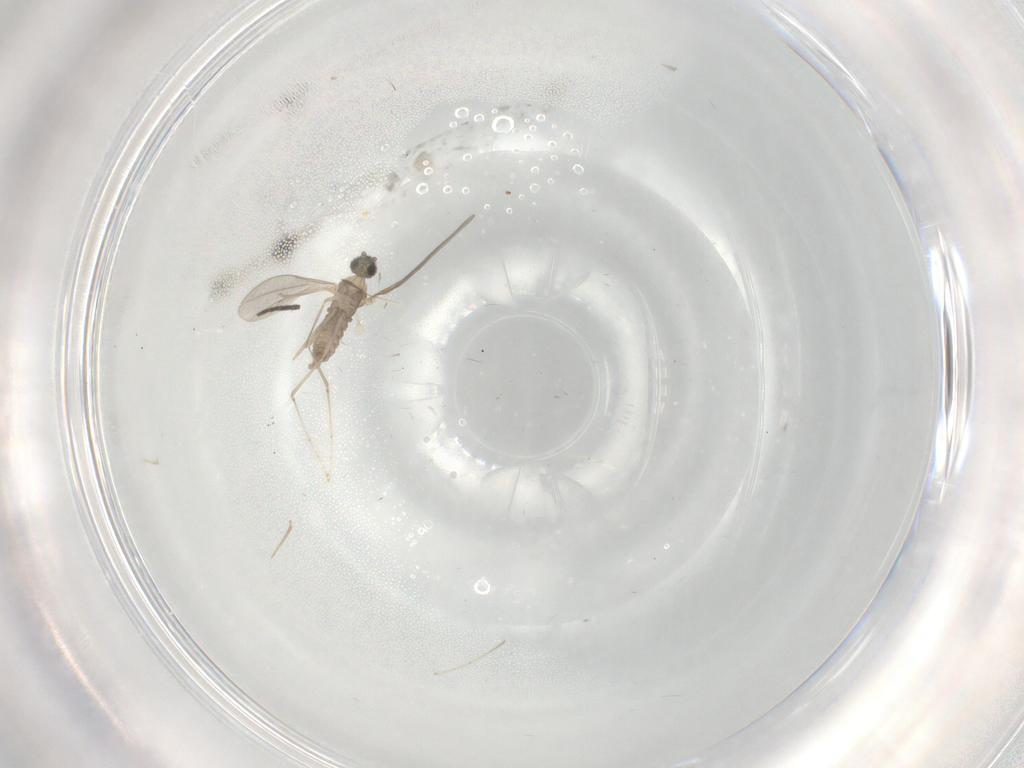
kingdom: Animalia
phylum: Arthropoda
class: Insecta
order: Diptera
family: Cecidomyiidae
